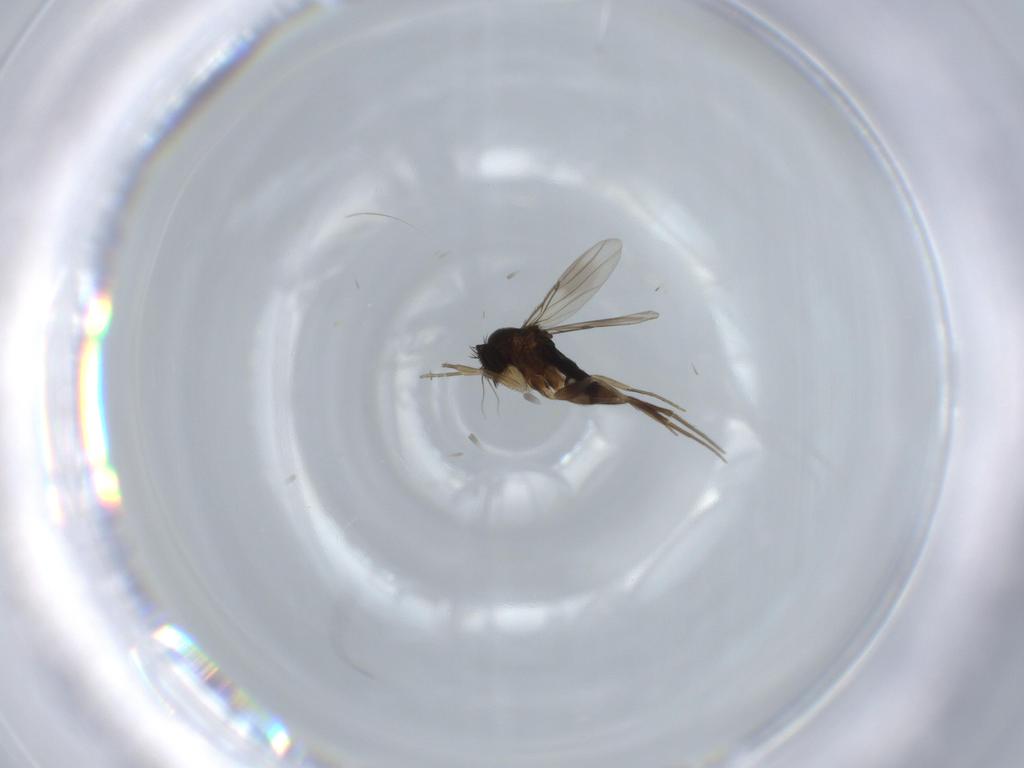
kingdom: Animalia
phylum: Arthropoda
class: Insecta
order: Diptera
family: Phoridae
